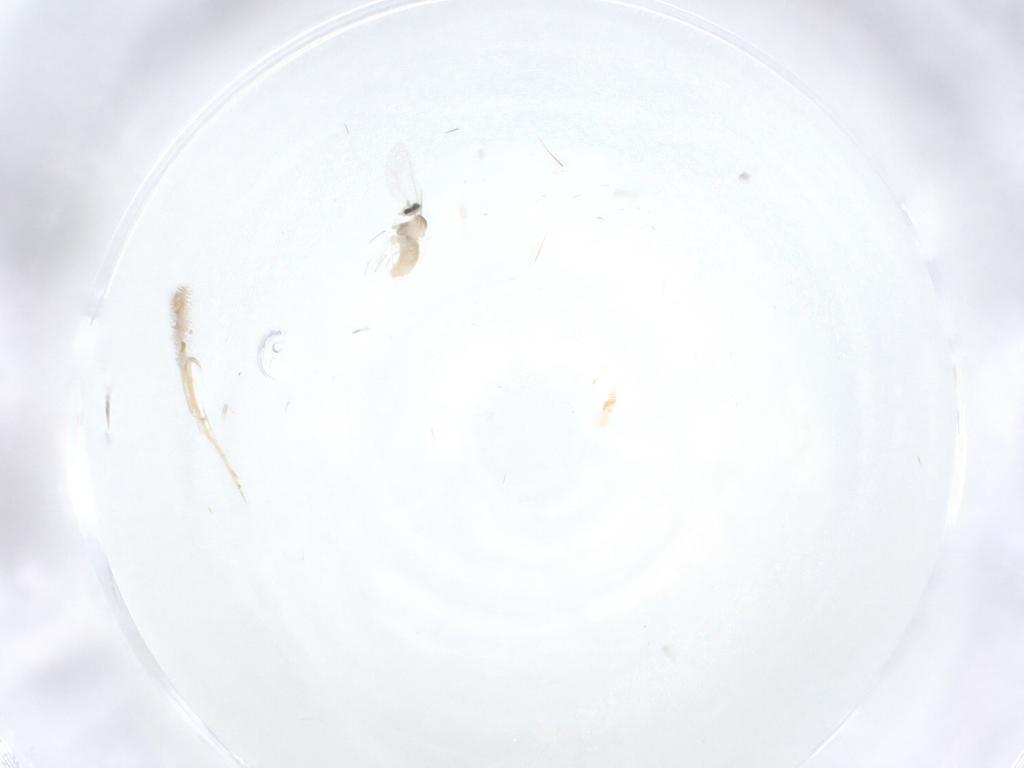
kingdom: Animalia
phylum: Arthropoda
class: Insecta
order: Diptera
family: Cecidomyiidae
